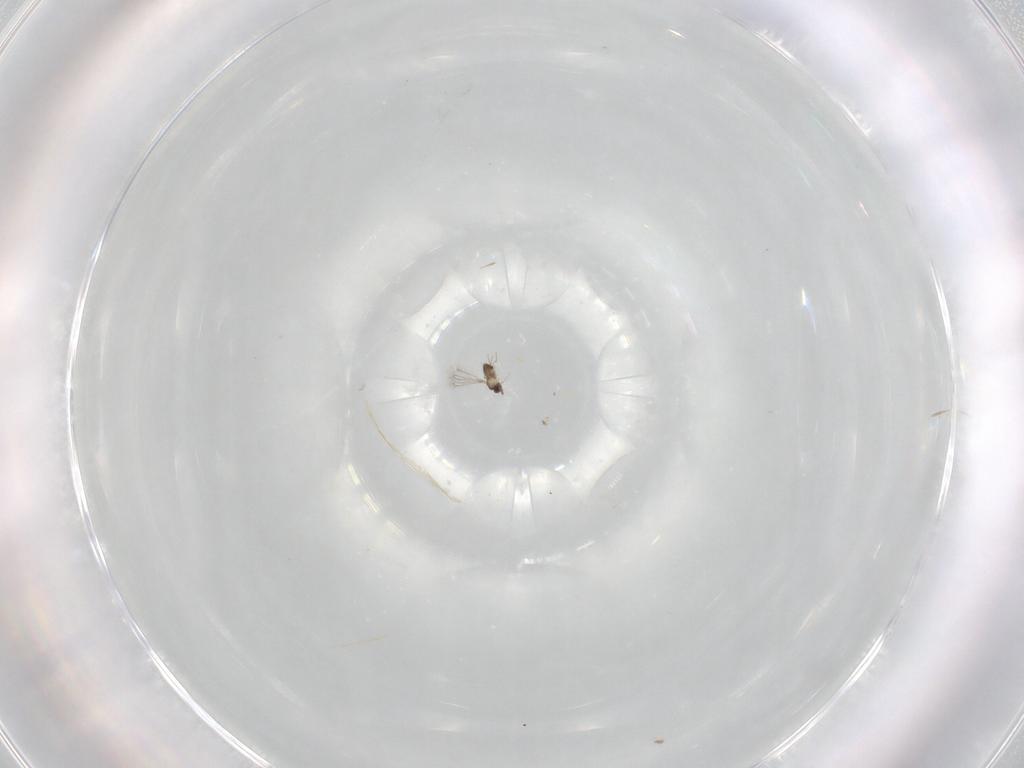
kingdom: Animalia
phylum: Arthropoda
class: Insecta
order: Hymenoptera
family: Mymaridae
